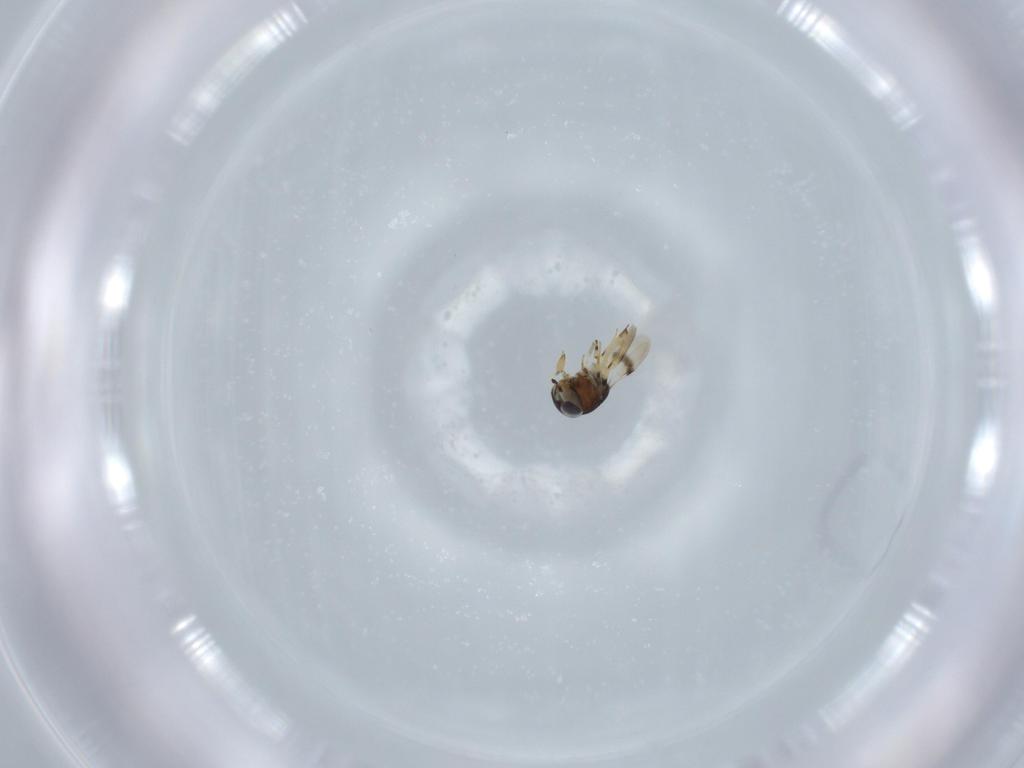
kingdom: Animalia
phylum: Arthropoda
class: Insecta
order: Hymenoptera
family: Scelionidae
